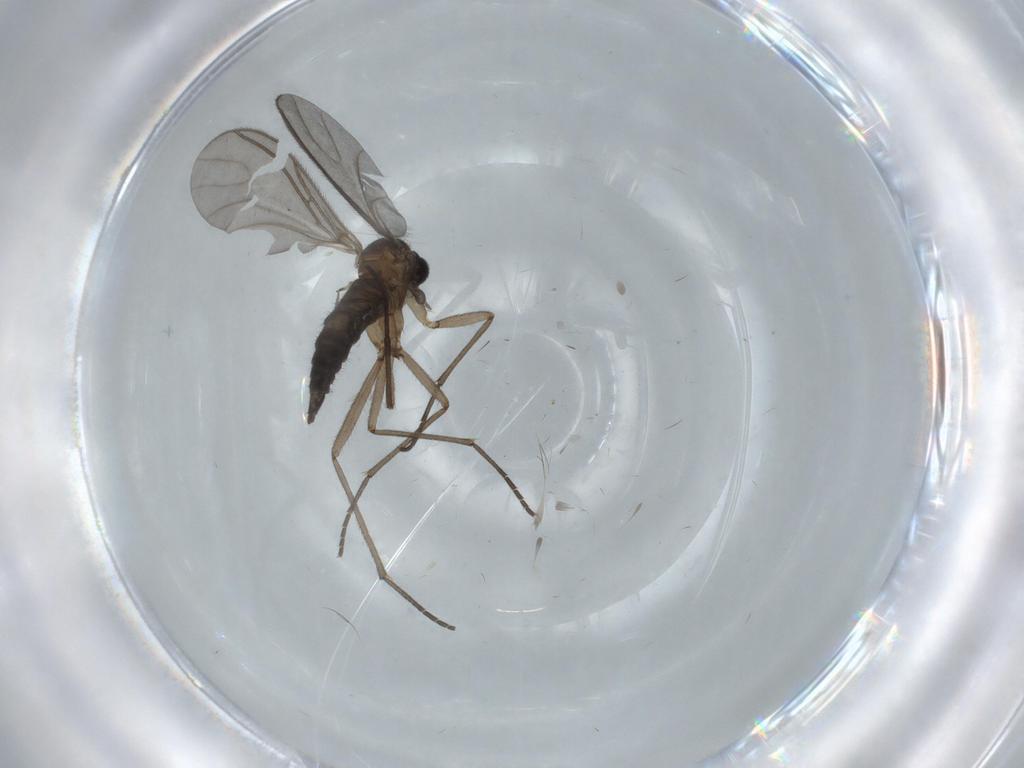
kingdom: Animalia
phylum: Arthropoda
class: Insecta
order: Diptera
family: Sciaridae
